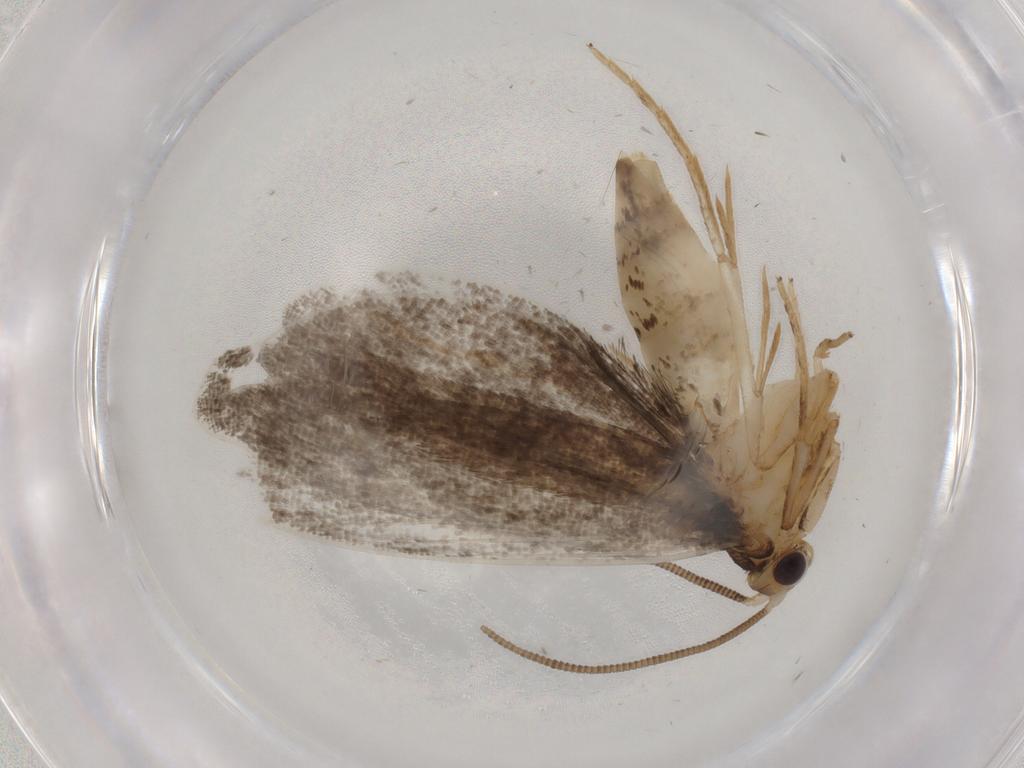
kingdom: Animalia
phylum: Arthropoda
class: Insecta
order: Lepidoptera
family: Tineidae
